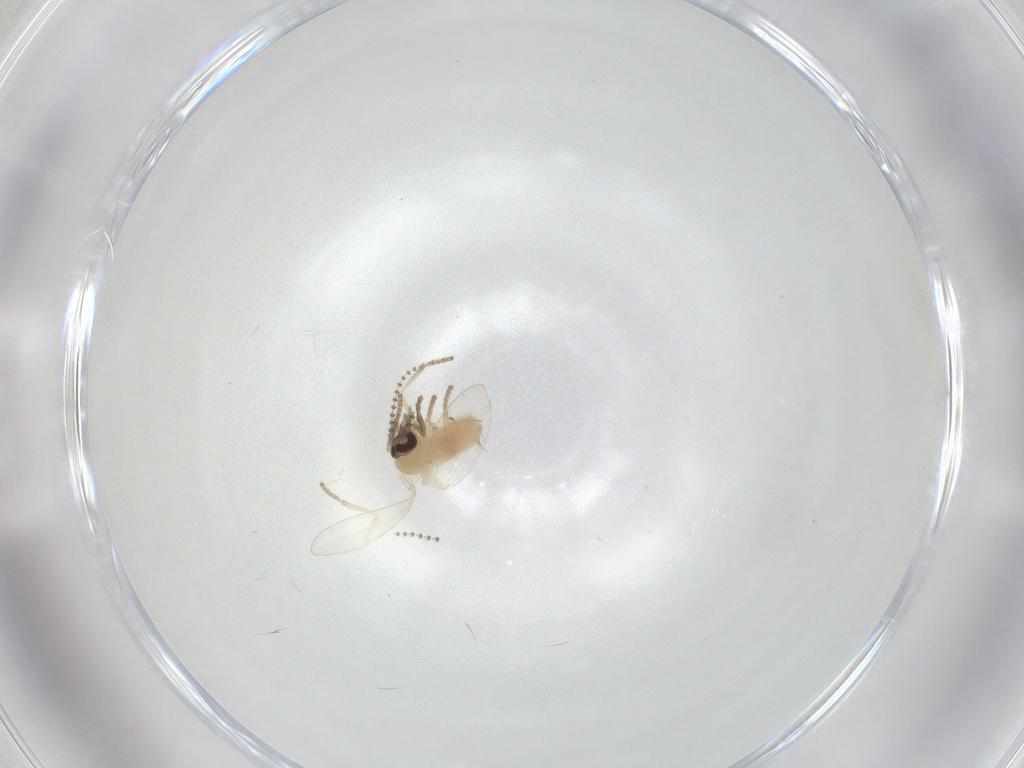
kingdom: Animalia
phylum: Arthropoda
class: Insecta
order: Diptera
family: Psychodidae
